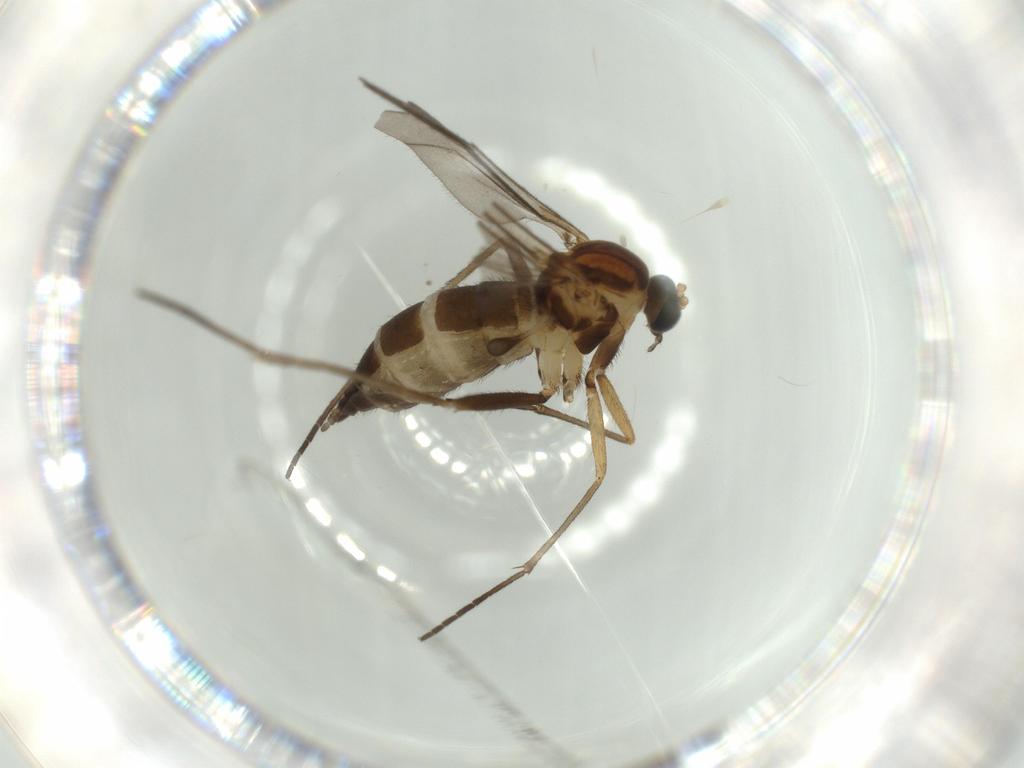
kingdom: Animalia
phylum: Arthropoda
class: Insecta
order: Diptera
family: Sciaridae
